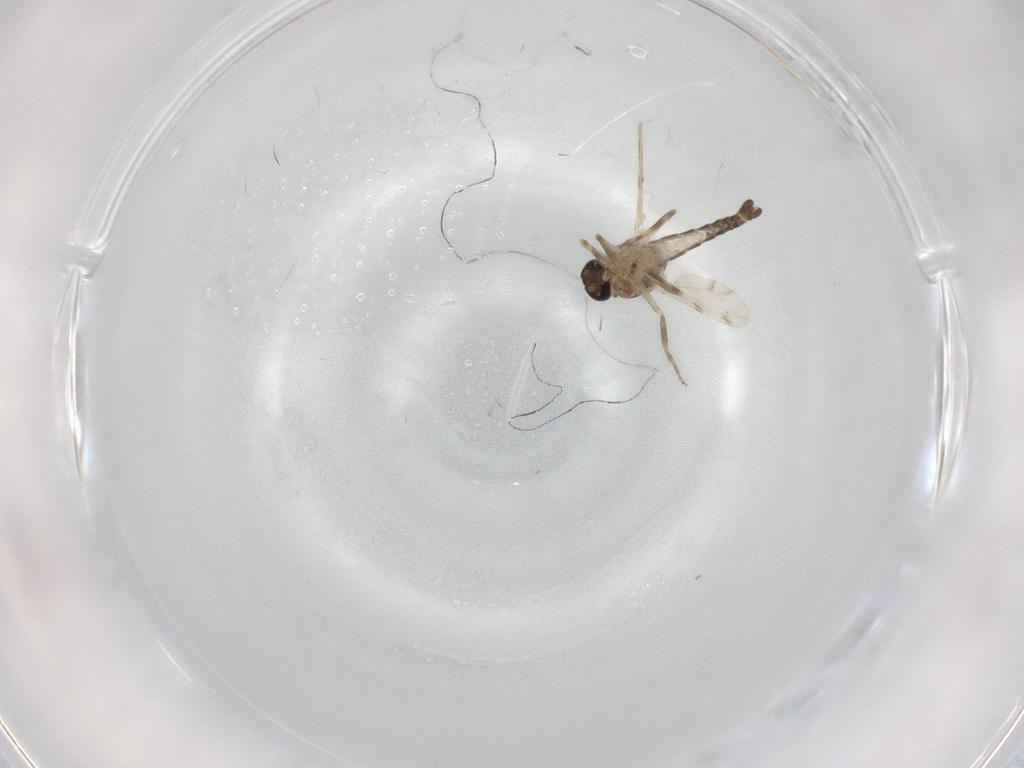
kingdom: Animalia
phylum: Arthropoda
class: Insecta
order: Diptera
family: Ceratopogonidae
